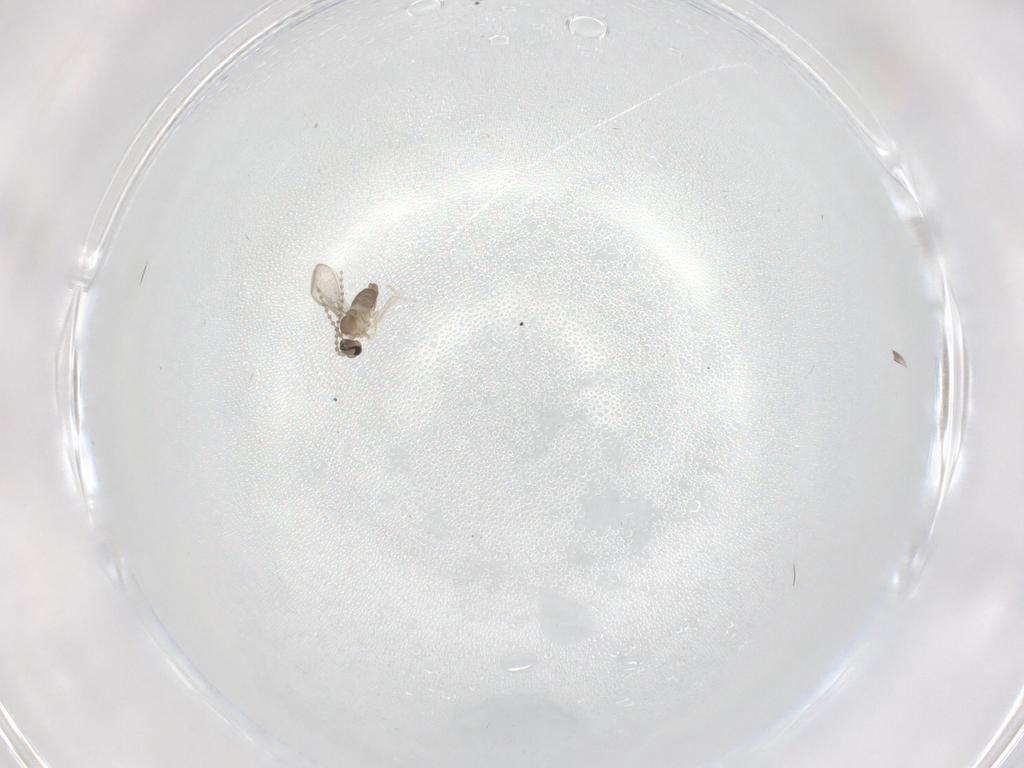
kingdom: Animalia
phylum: Arthropoda
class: Insecta
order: Diptera
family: Cecidomyiidae
